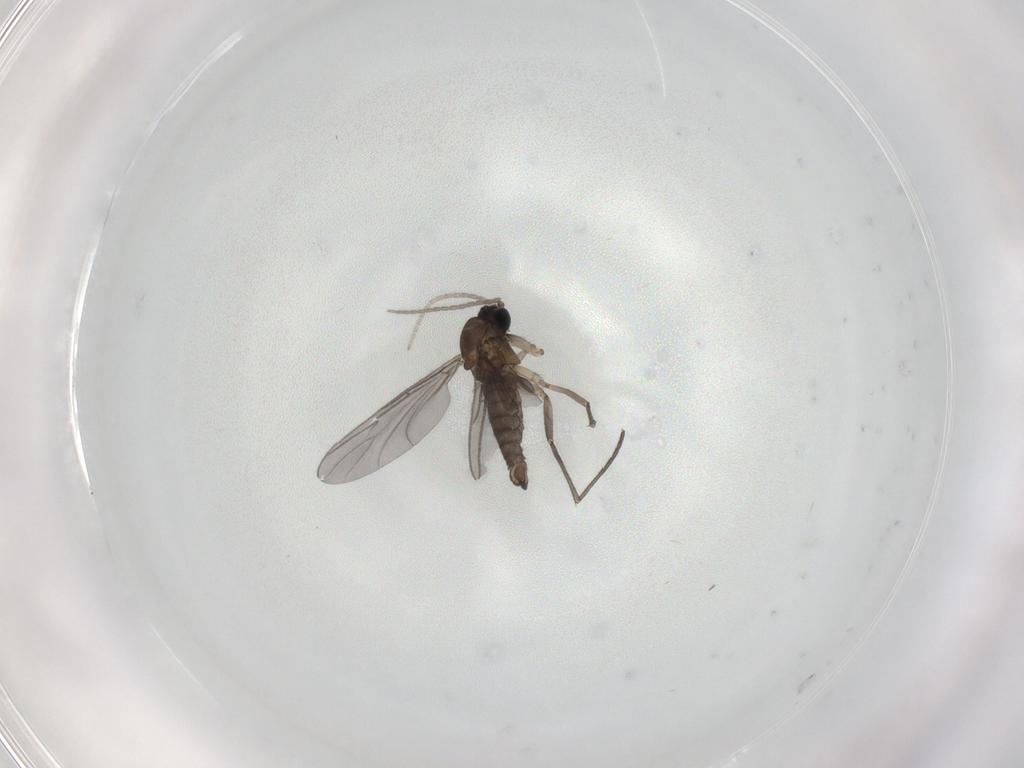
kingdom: Animalia
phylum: Arthropoda
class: Insecta
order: Diptera
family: Sciaridae
